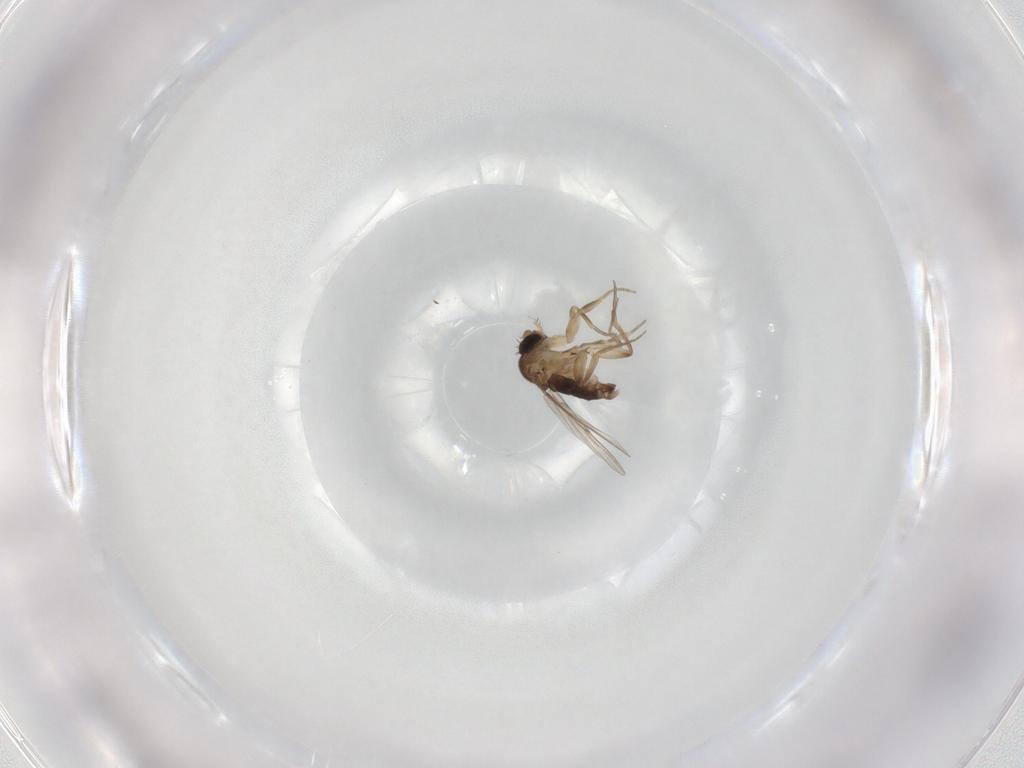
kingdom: Animalia
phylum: Arthropoda
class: Insecta
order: Diptera
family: Phoridae
